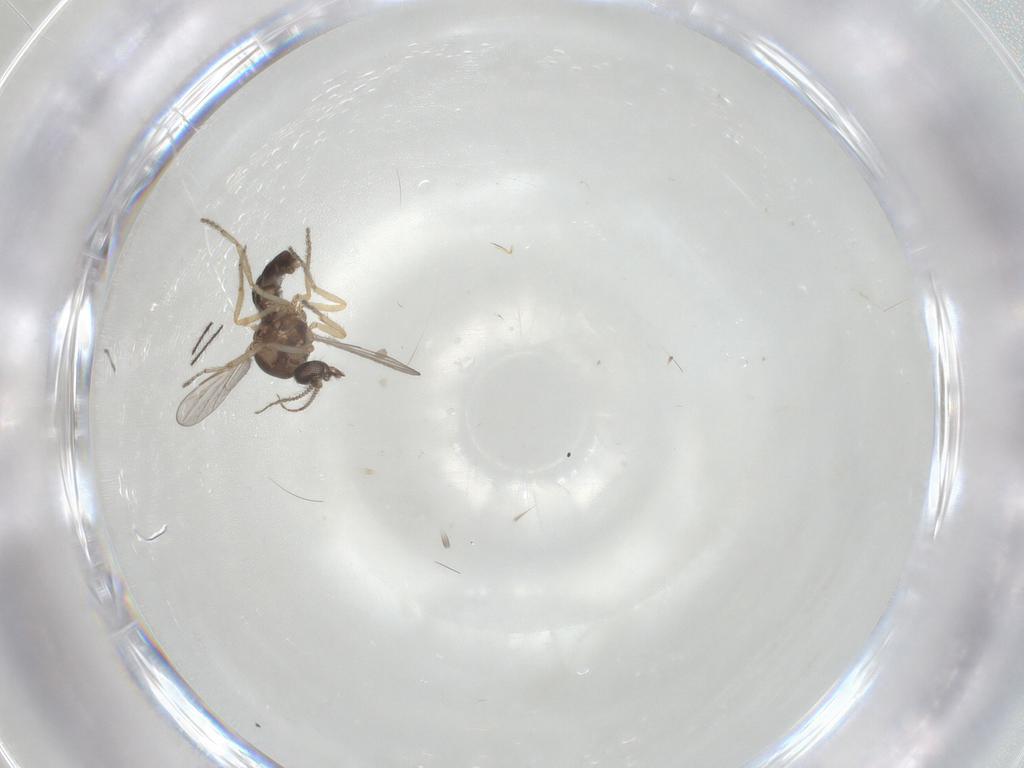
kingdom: Animalia
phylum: Arthropoda
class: Insecta
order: Diptera
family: Ceratopogonidae
